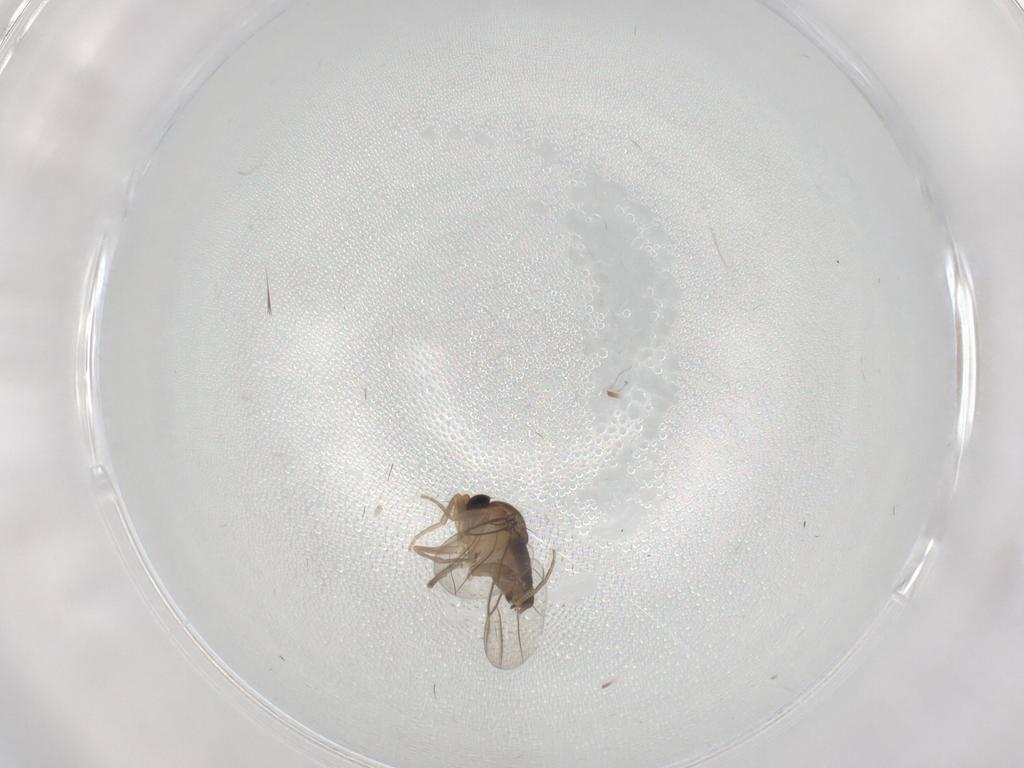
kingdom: Animalia
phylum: Arthropoda
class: Insecta
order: Diptera
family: Phoridae
